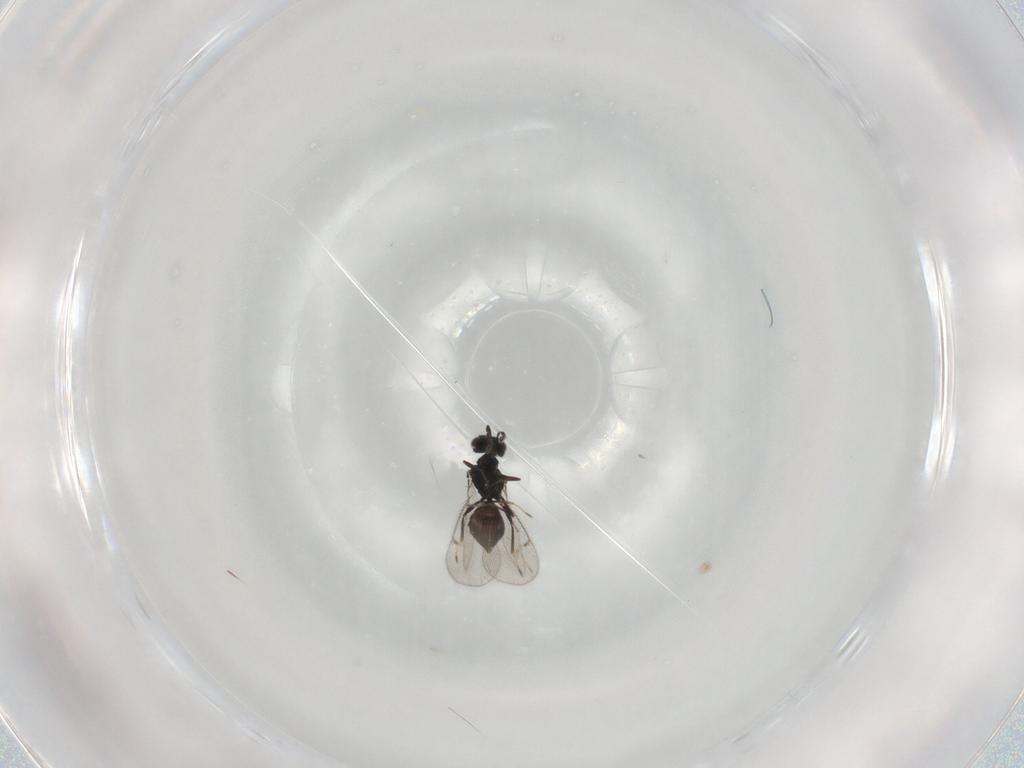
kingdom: Animalia
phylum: Arthropoda
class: Insecta
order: Hymenoptera
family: Eulophidae
